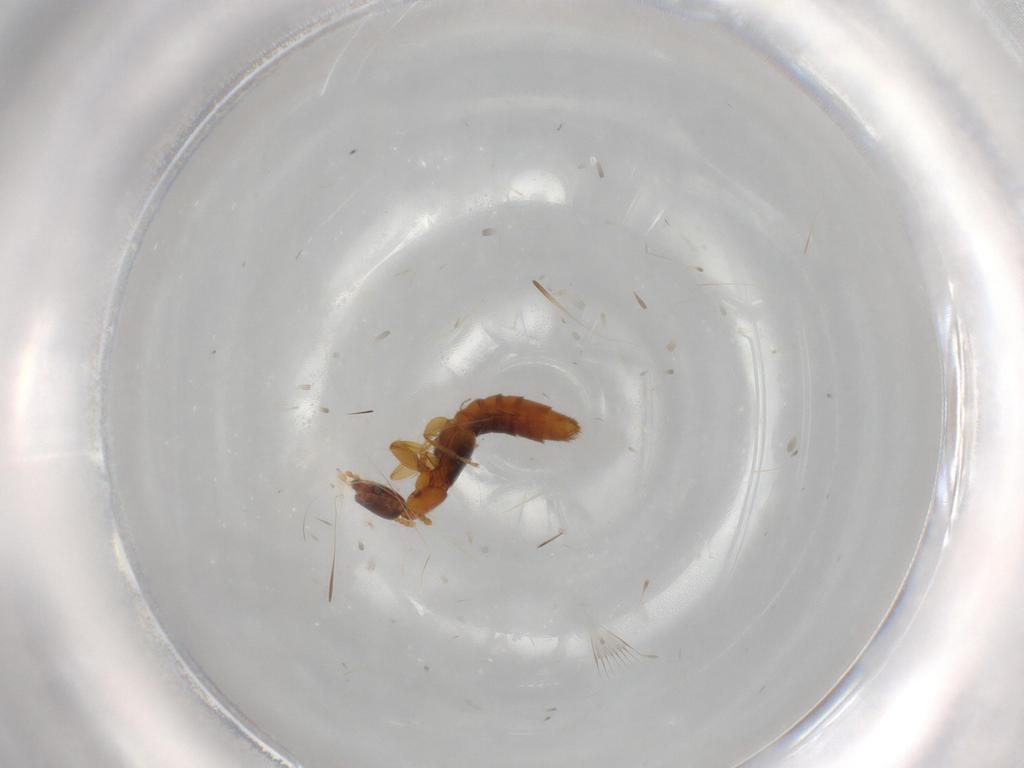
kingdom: Animalia
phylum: Arthropoda
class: Insecta
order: Coleoptera
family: Staphylinidae
